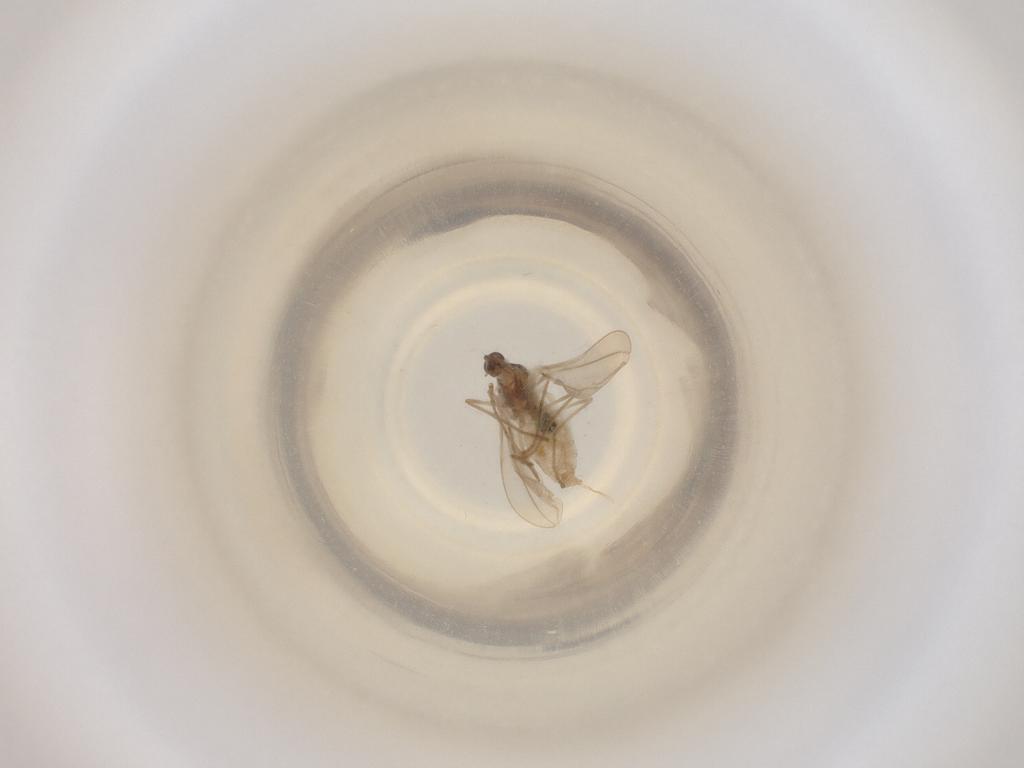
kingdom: Animalia
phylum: Arthropoda
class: Insecta
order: Diptera
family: Cecidomyiidae
